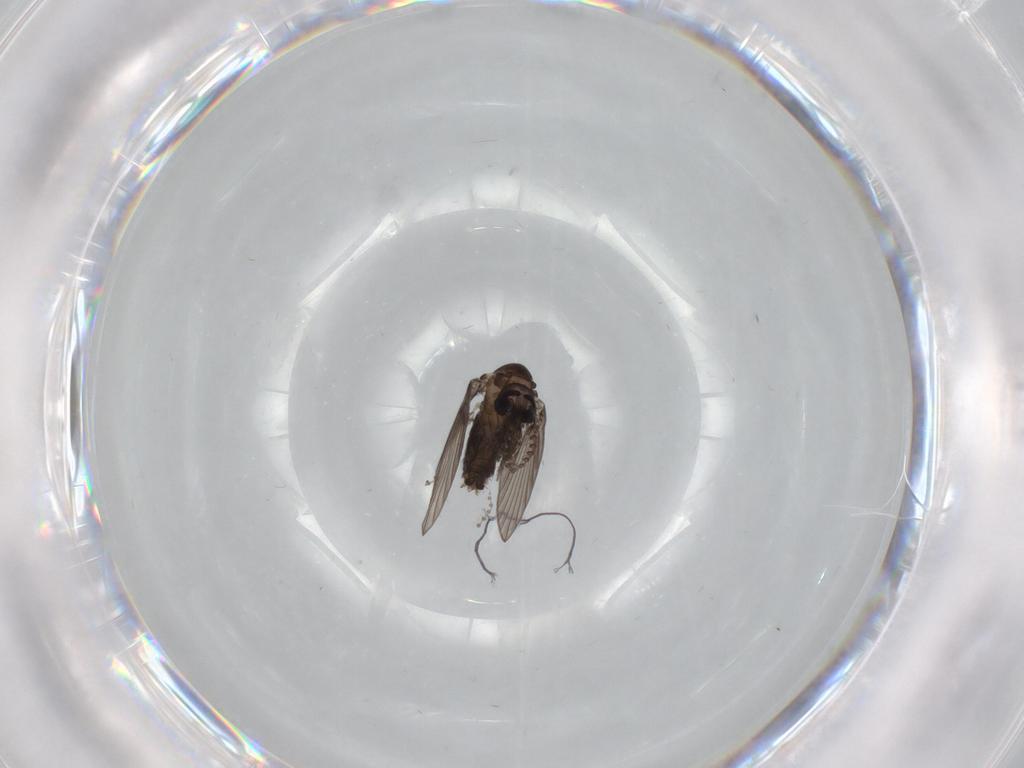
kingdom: Animalia
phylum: Arthropoda
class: Insecta
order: Diptera
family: Psychodidae
